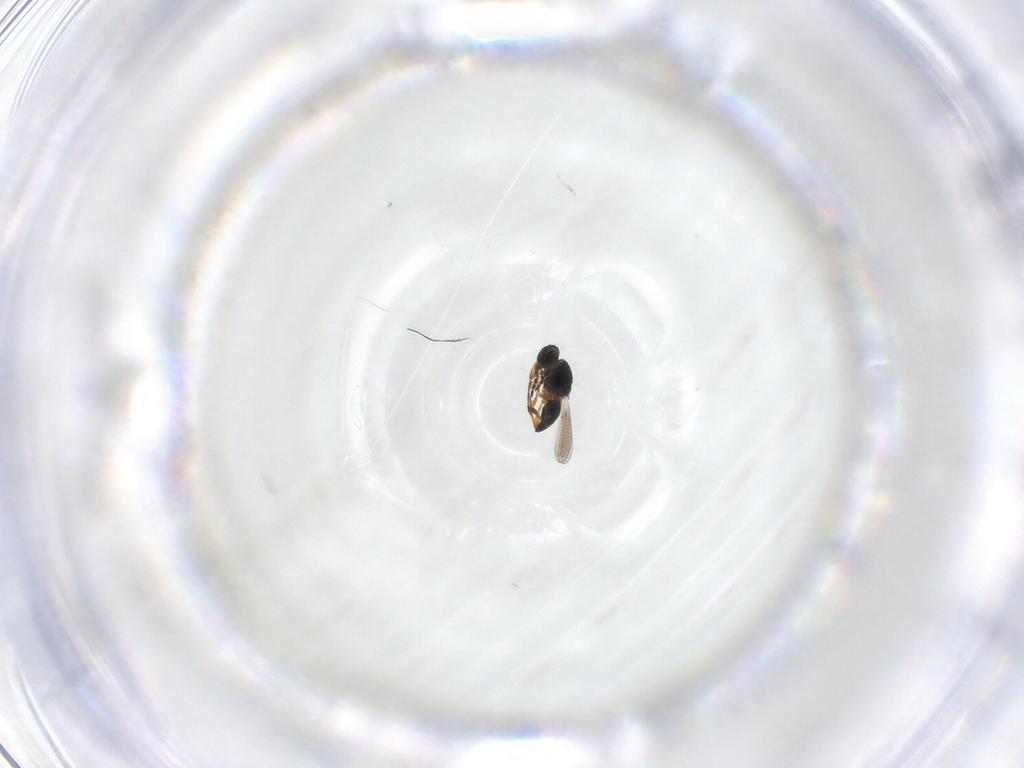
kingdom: Animalia
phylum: Arthropoda
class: Insecta
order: Hymenoptera
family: Platygastridae
